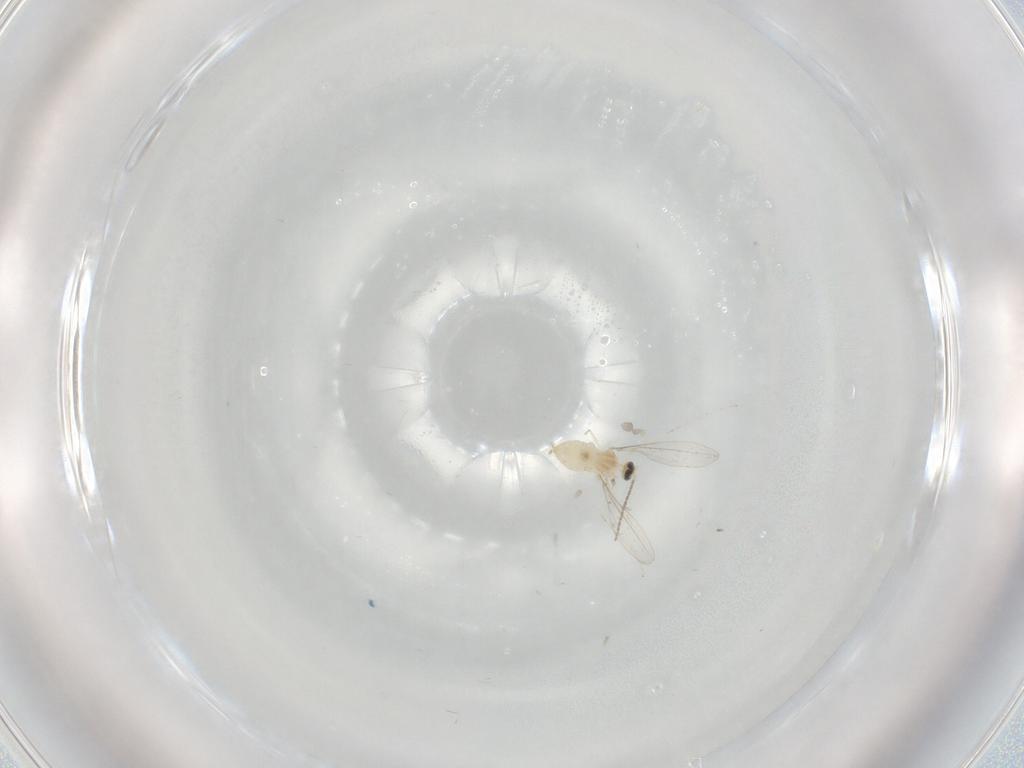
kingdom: Animalia
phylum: Arthropoda
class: Insecta
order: Diptera
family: Cecidomyiidae
